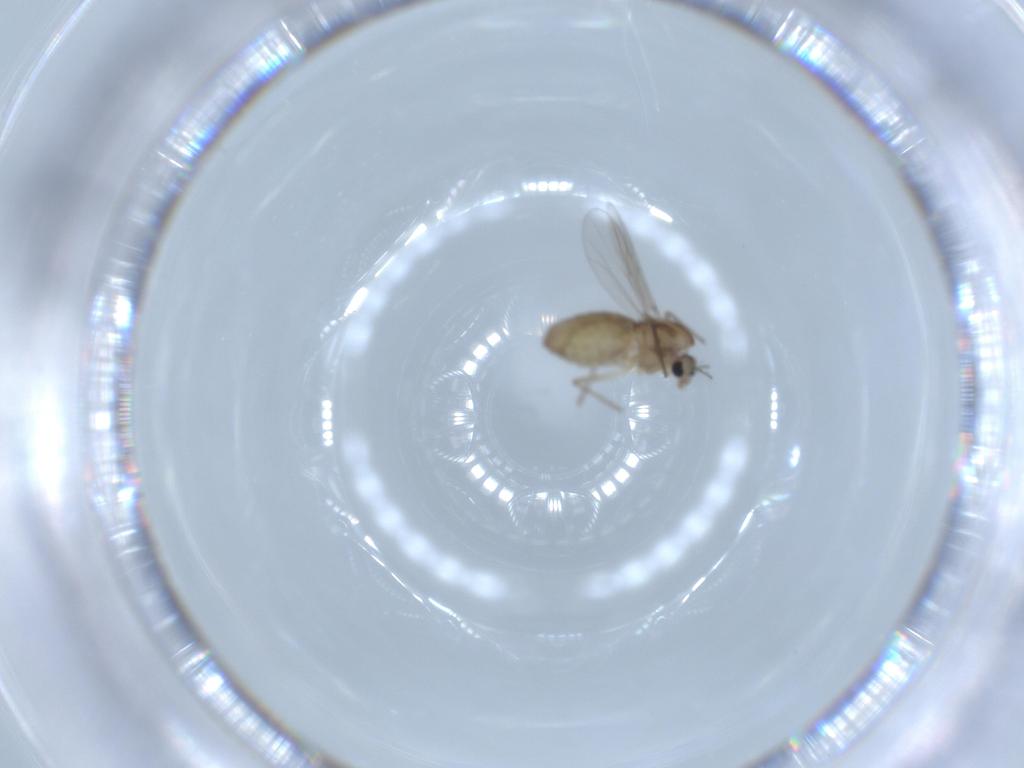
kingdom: Animalia
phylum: Arthropoda
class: Insecta
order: Diptera
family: Chironomidae
